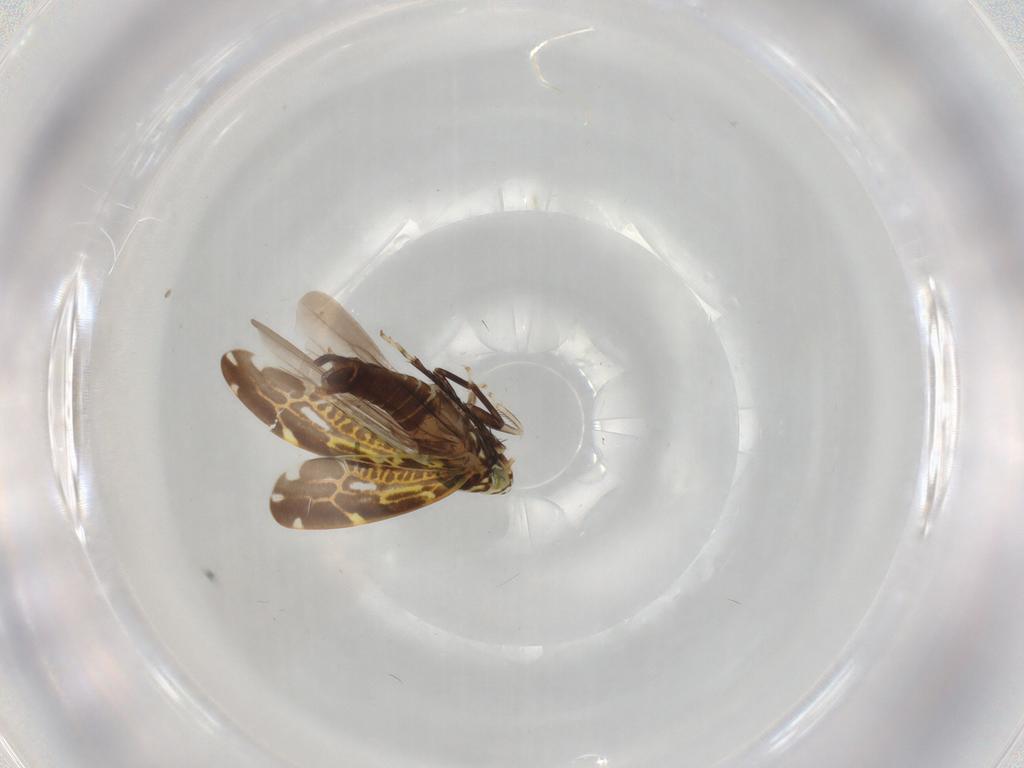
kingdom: Animalia
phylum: Arthropoda
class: Insecta
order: Hemiptera
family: Cicadellidae
